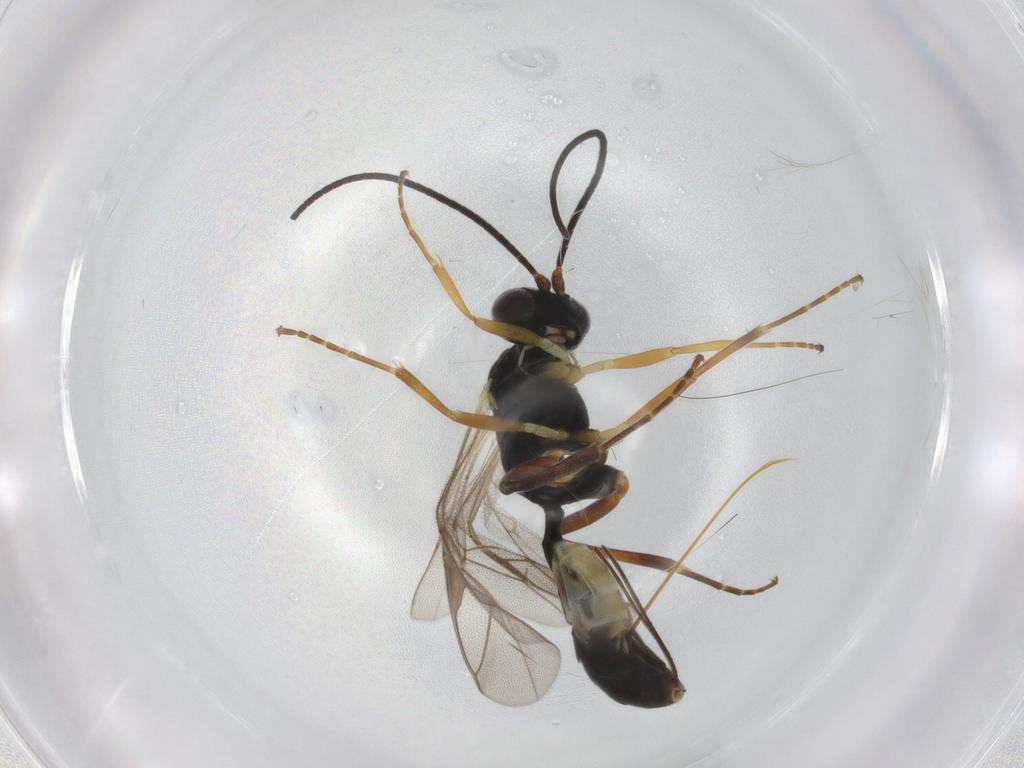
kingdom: Animalia
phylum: Arthropoda
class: Insecta
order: Hymenoptera
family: Ichneumonidae
